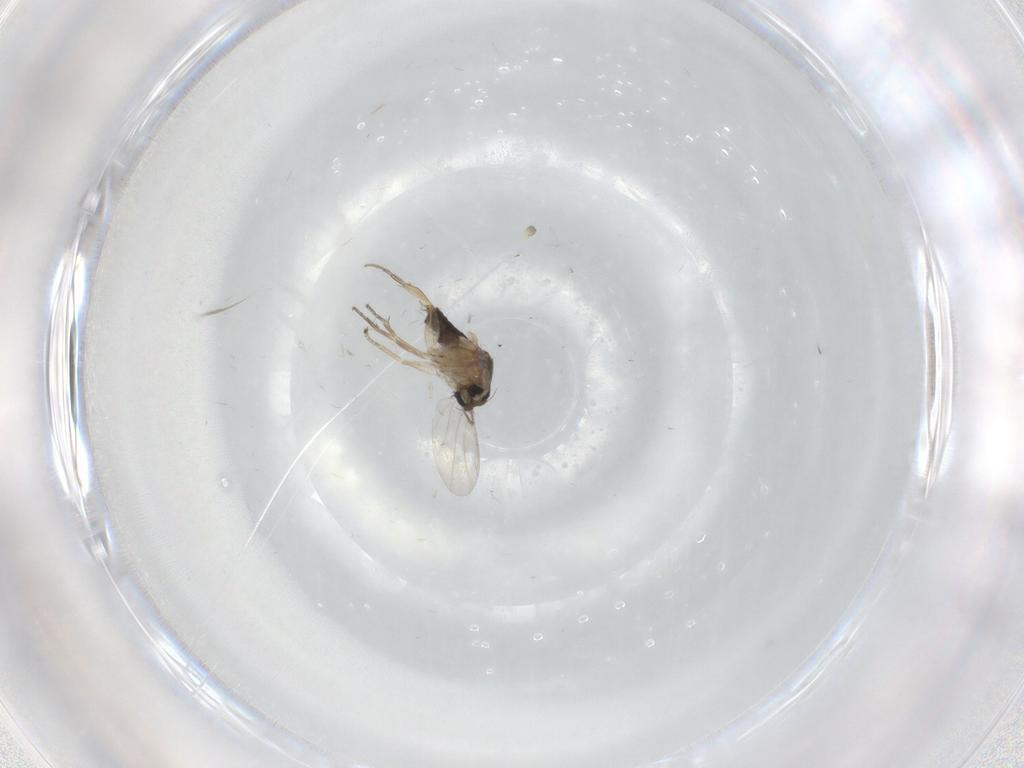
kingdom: Animalia
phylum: Arthropoda
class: Insecta
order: Diptera
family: Phoridae
